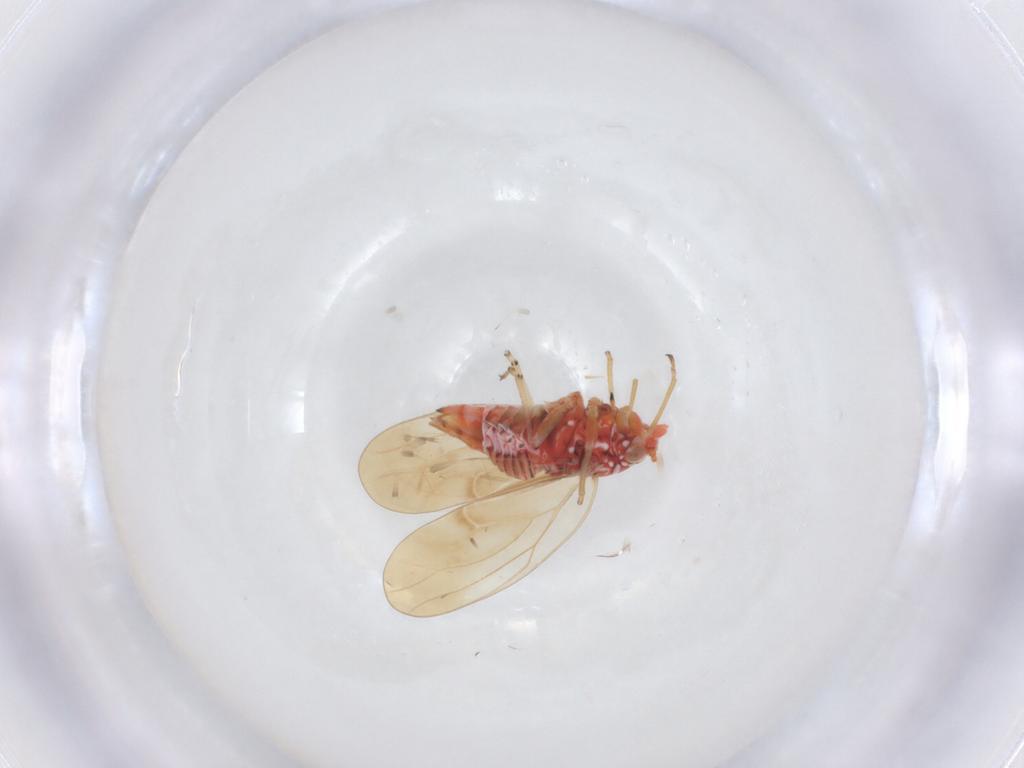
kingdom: Animalia
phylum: Arthropoda
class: Insecta
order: Hemiptera
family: Psyllidae
